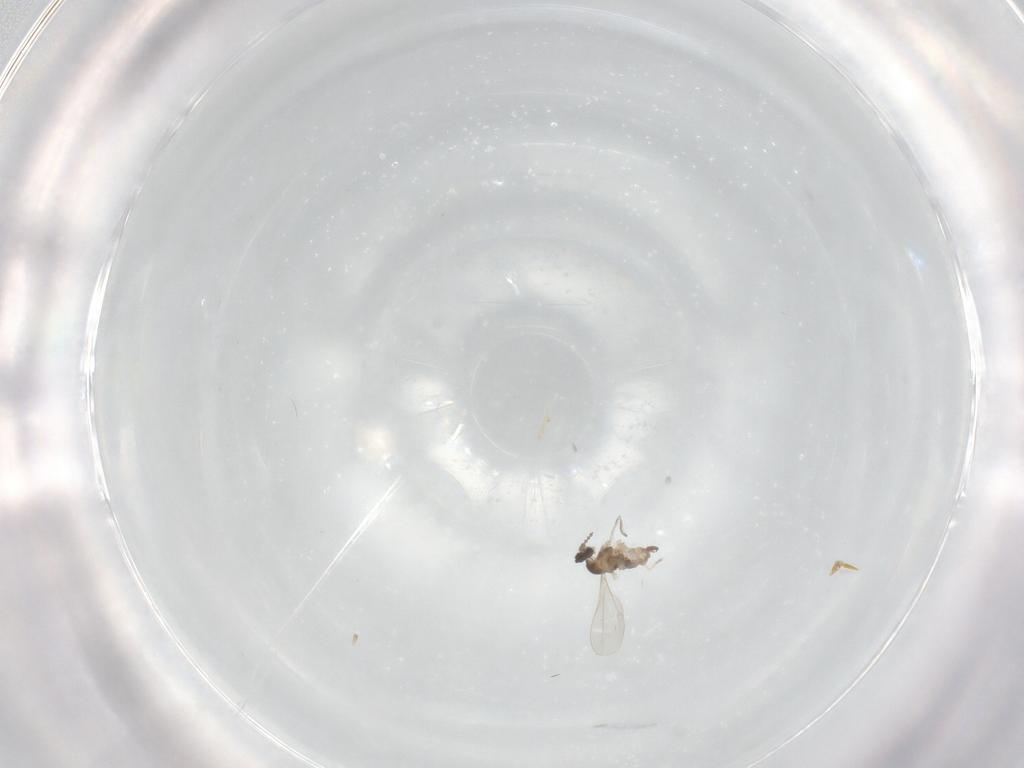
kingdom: Animalia
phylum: Arthropoda
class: Insecta
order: Diptera
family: Cecidomyiidae
